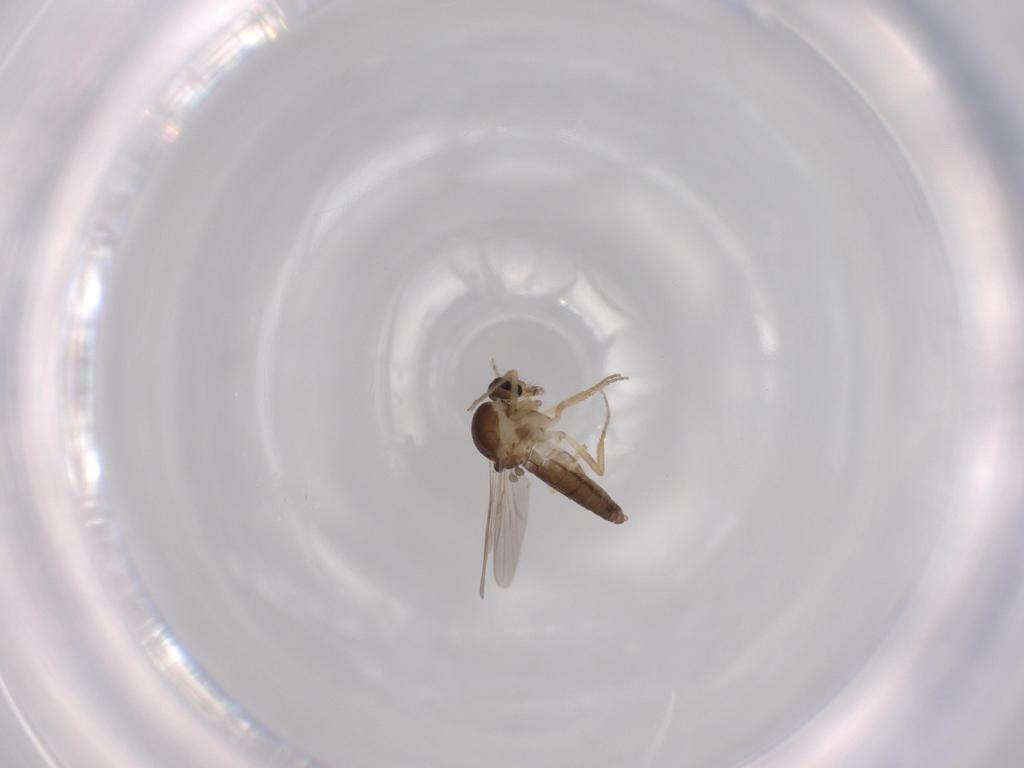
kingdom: Animalia
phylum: Arthropoda
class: Insecta
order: Diptera
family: Ceratopogonidae
